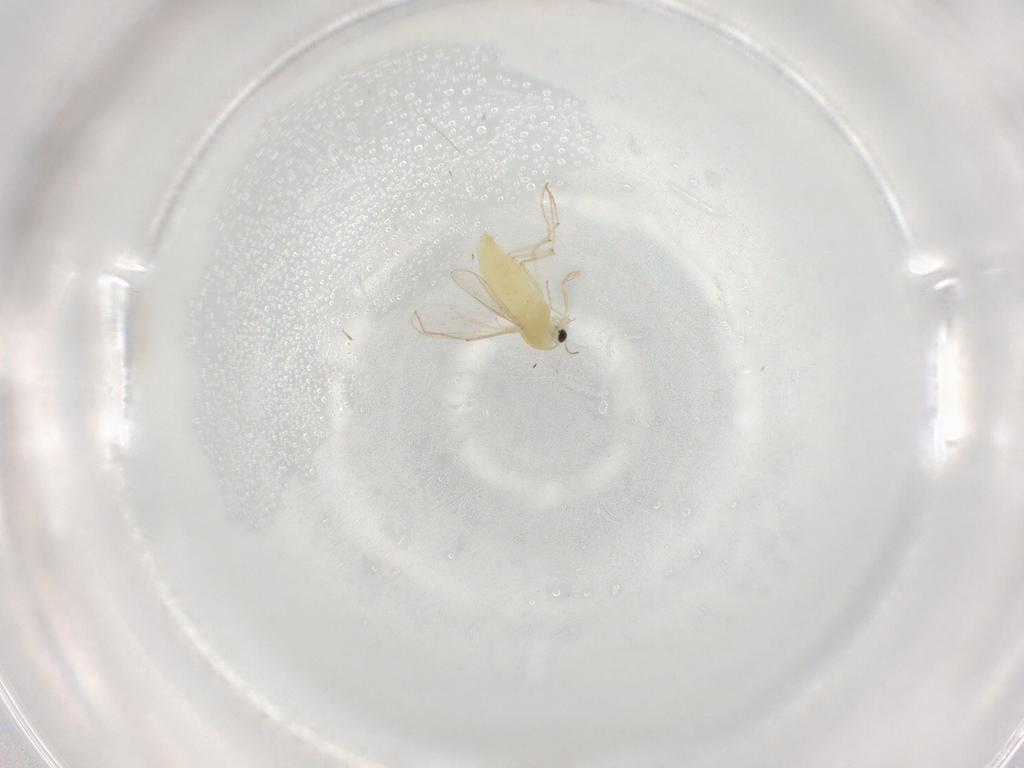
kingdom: Animalia
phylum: Arthropoda
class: Insecta
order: Diptera
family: Chironomidae
